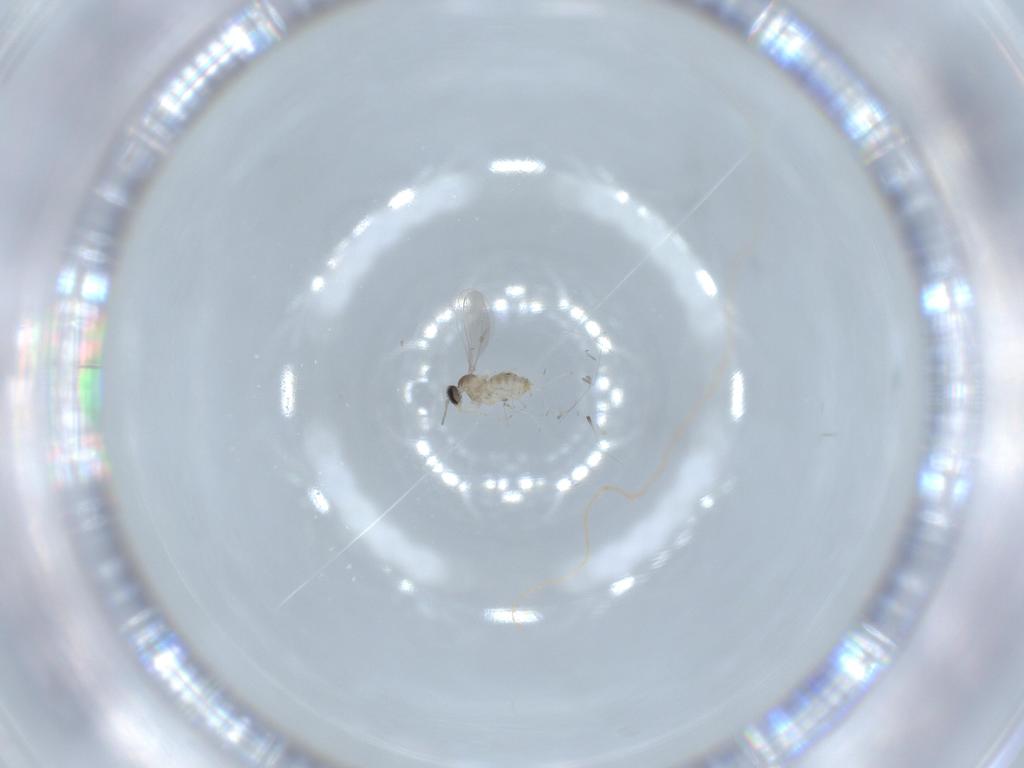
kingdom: Animalia
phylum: Arthropoda
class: Insecta
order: Diptera
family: Cecidomyiidae
